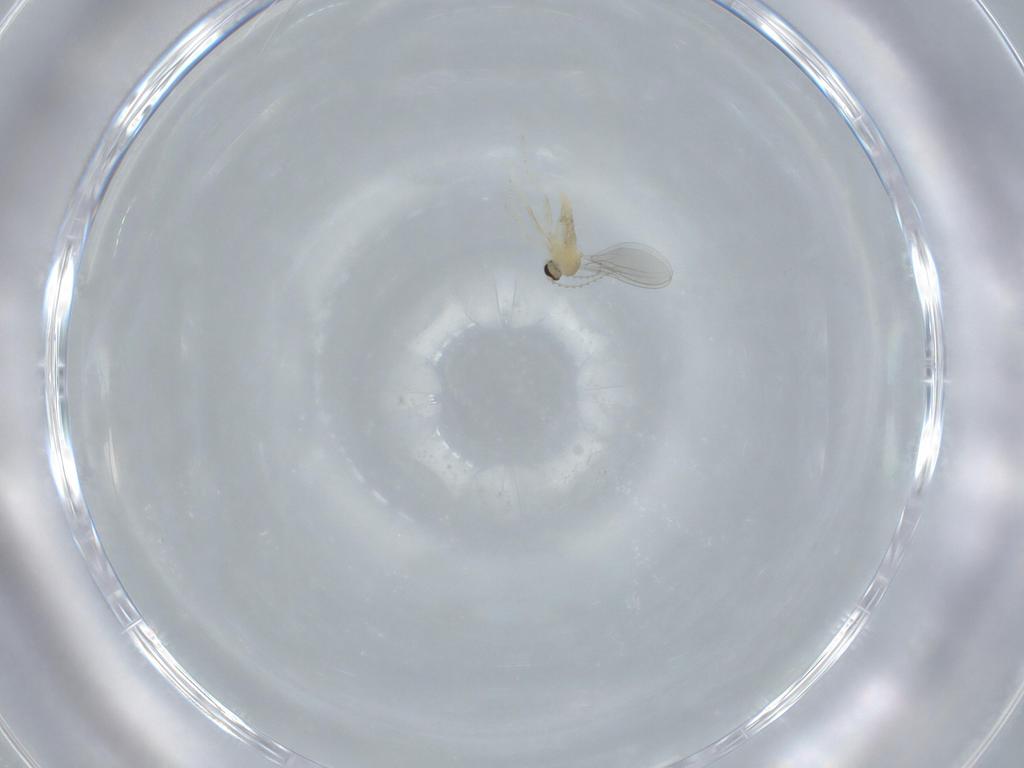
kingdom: Animalia
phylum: Arthropoda
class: Insecta
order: Diptera
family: Cecidomyiidae
